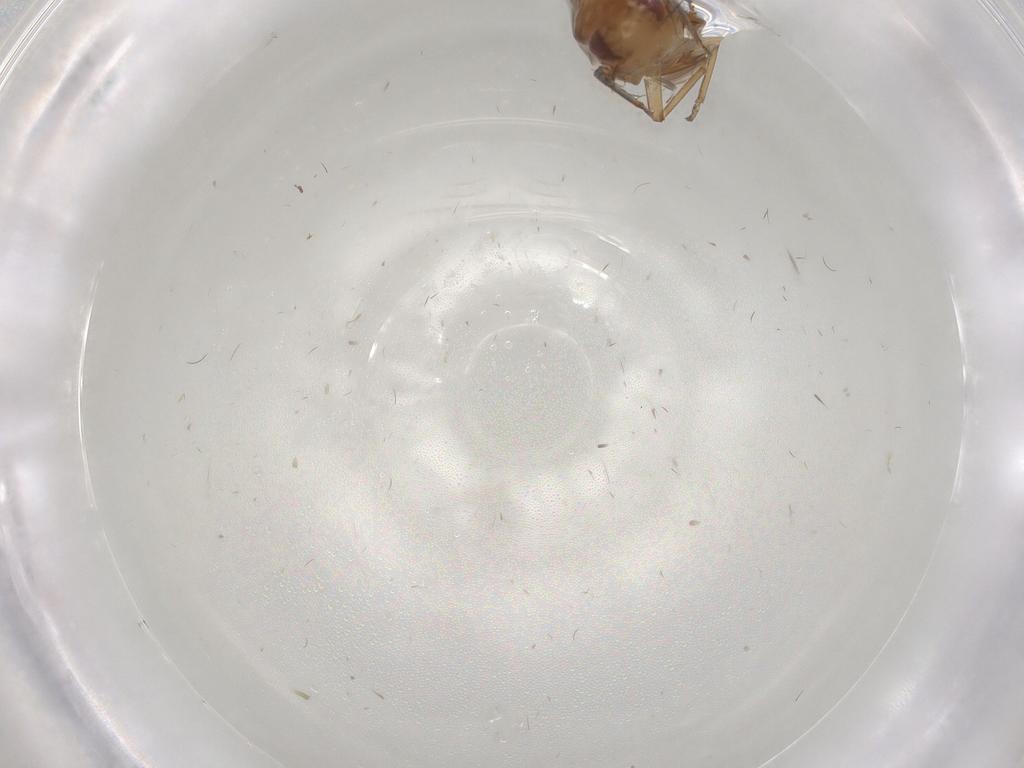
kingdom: Animalia
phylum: Arthropoda
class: Insecta
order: Hemiptera
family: Cicadellidae
